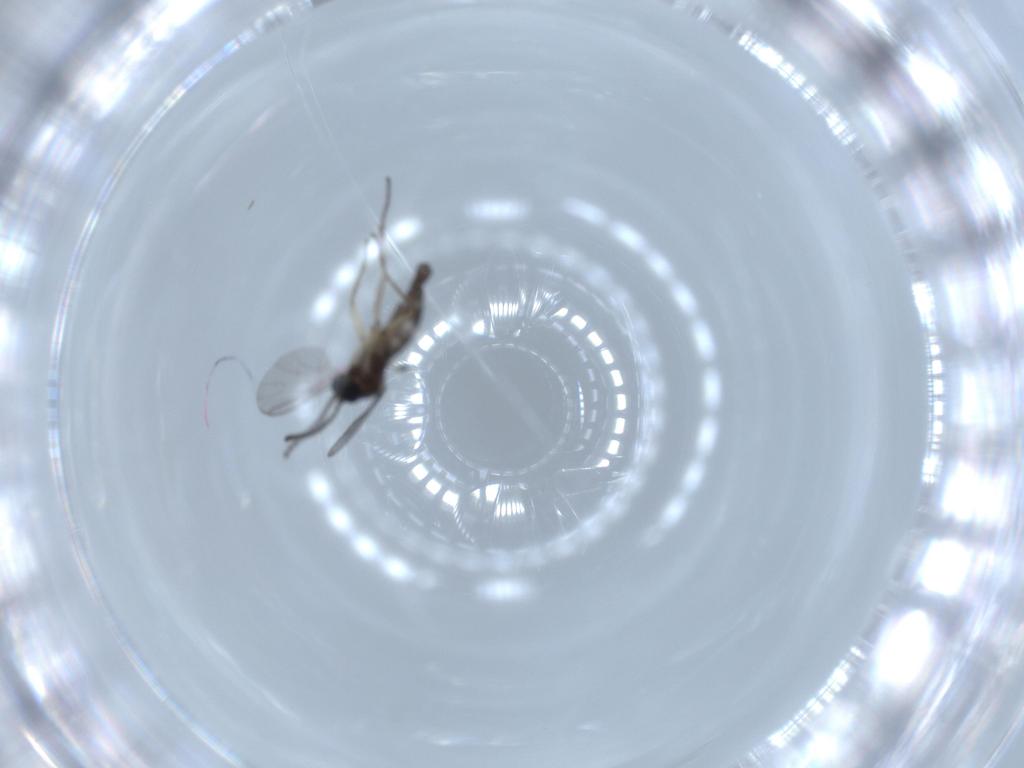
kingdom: Animalia
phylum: Arthropoda
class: Insecta
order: Diptera
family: Sciaridae
